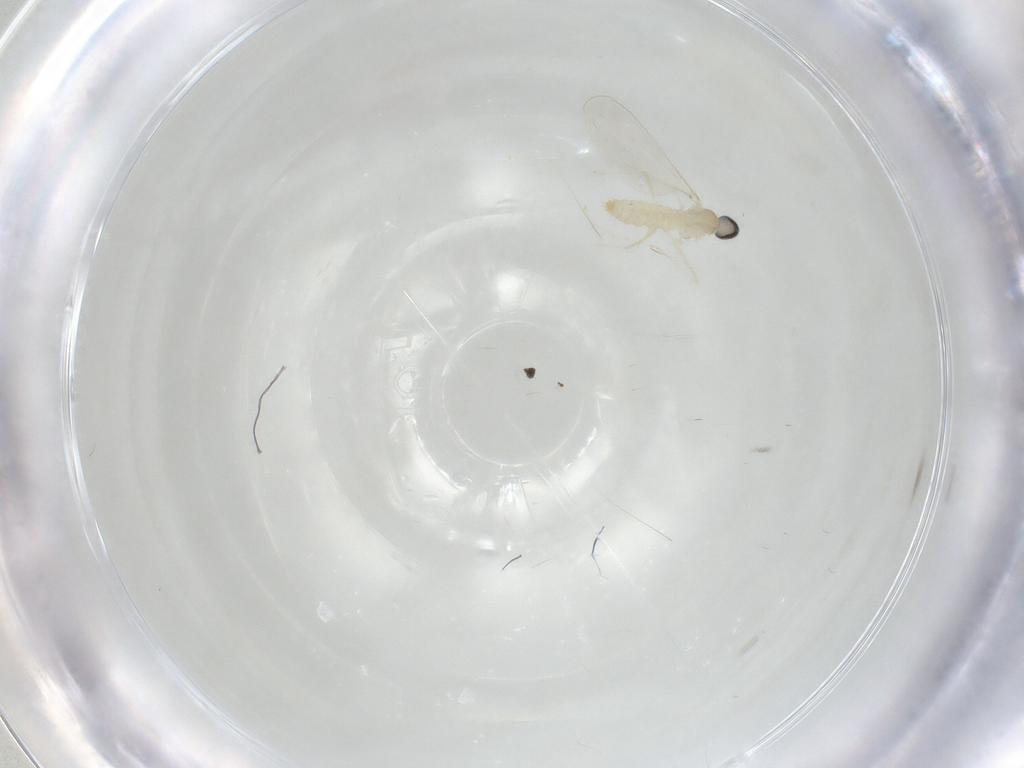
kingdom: Animalia
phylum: Arthropoda
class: Insecta
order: Diptera
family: Cecidomyiidae
